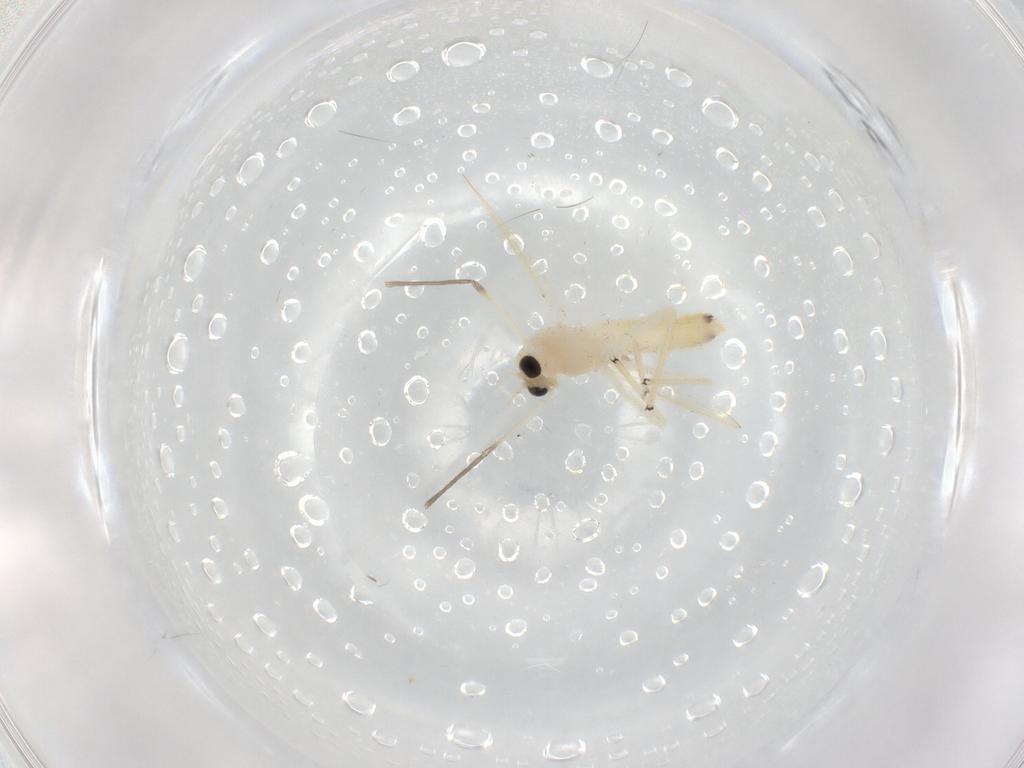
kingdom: Animalia
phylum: Arthropoda
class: Insecta
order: Diptera
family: Chironomidae
